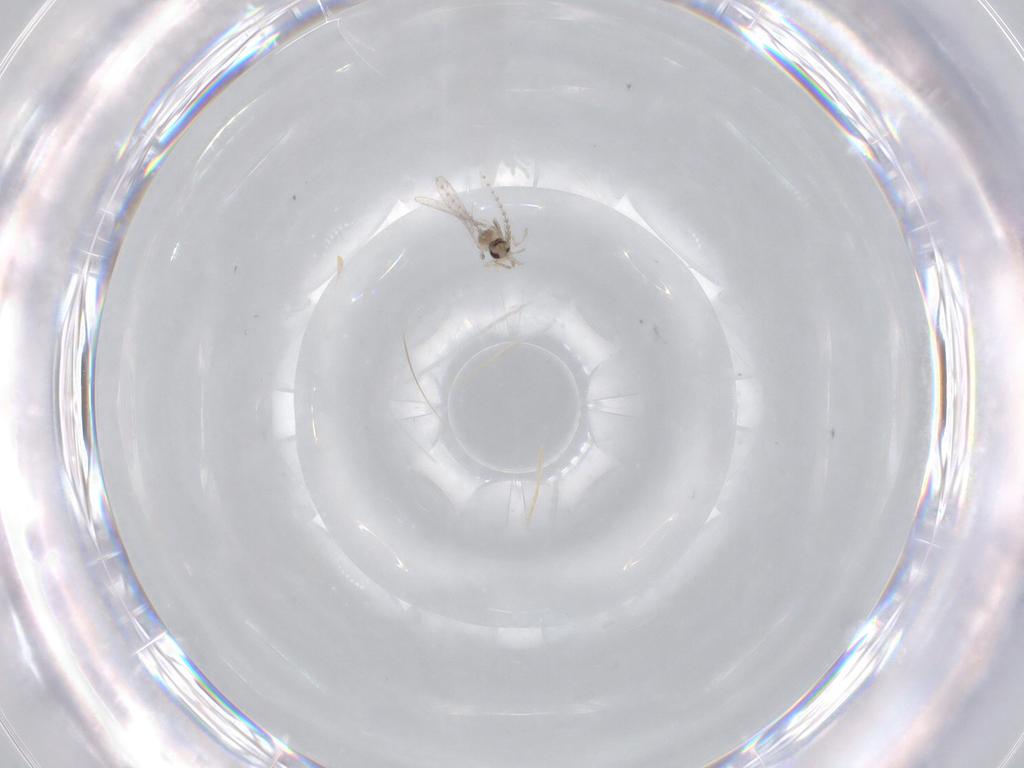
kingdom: Animalia
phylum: Arthropoda
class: Insecta
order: Diptera
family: Cecidomyiidae
